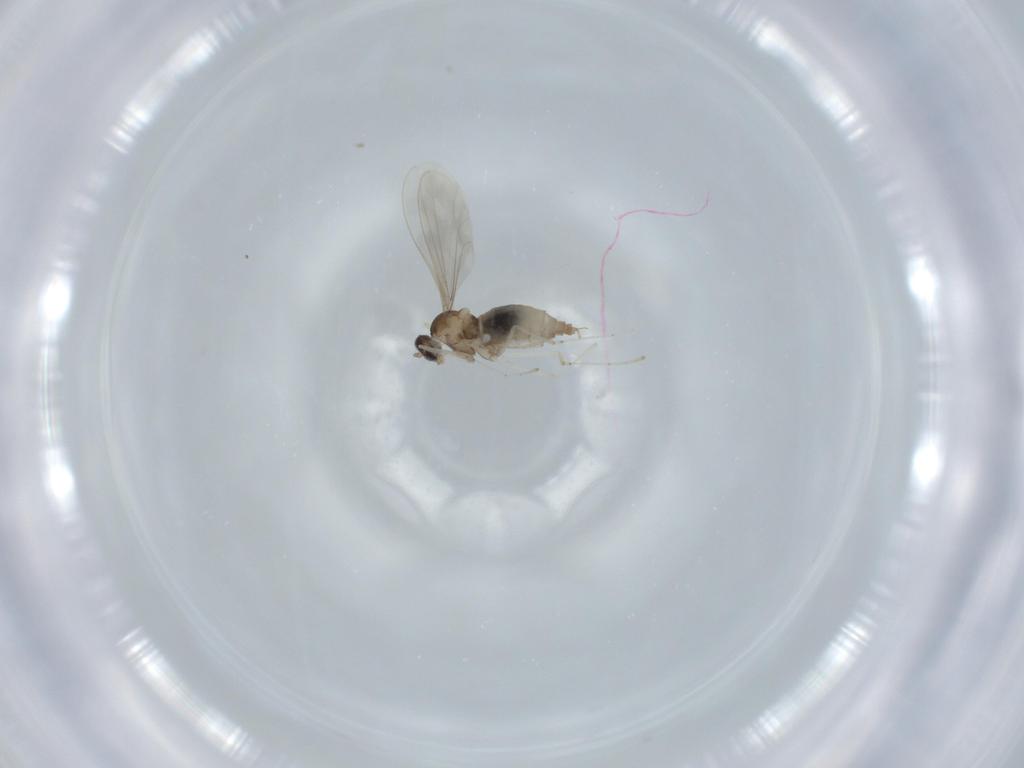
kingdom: Animalia
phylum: Arthropoda
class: Insecta
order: Diptera
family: Cecidomyiidae
